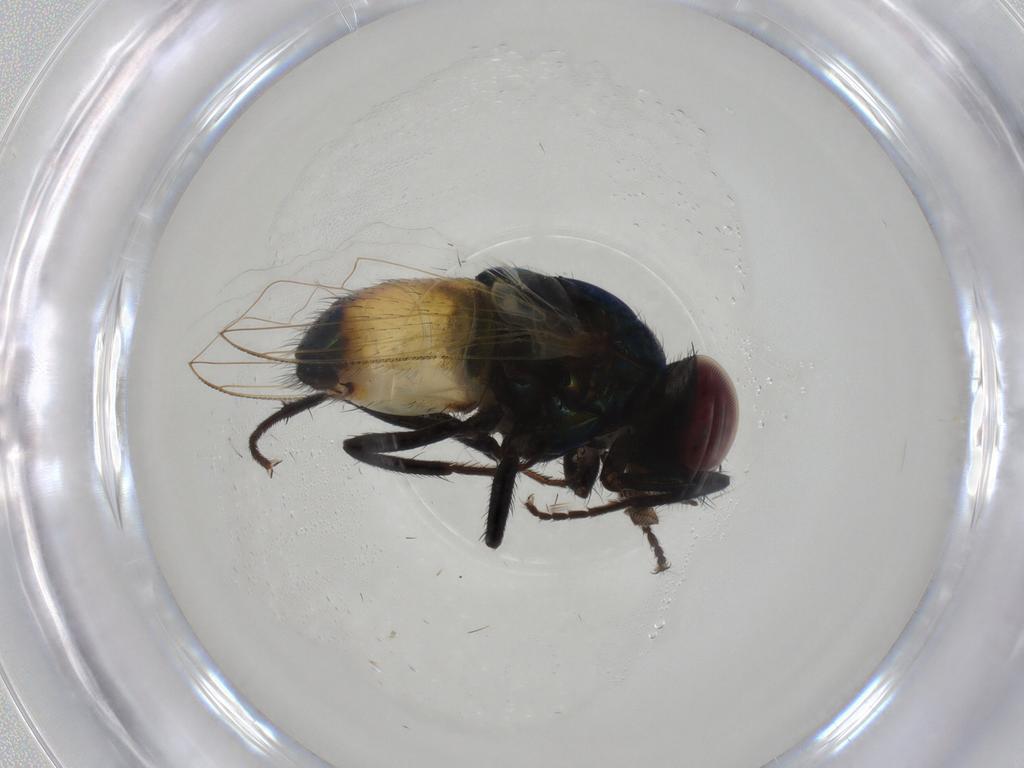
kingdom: Animalia
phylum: Arthropoda
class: Insecta
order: Diptera
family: Muscidae
